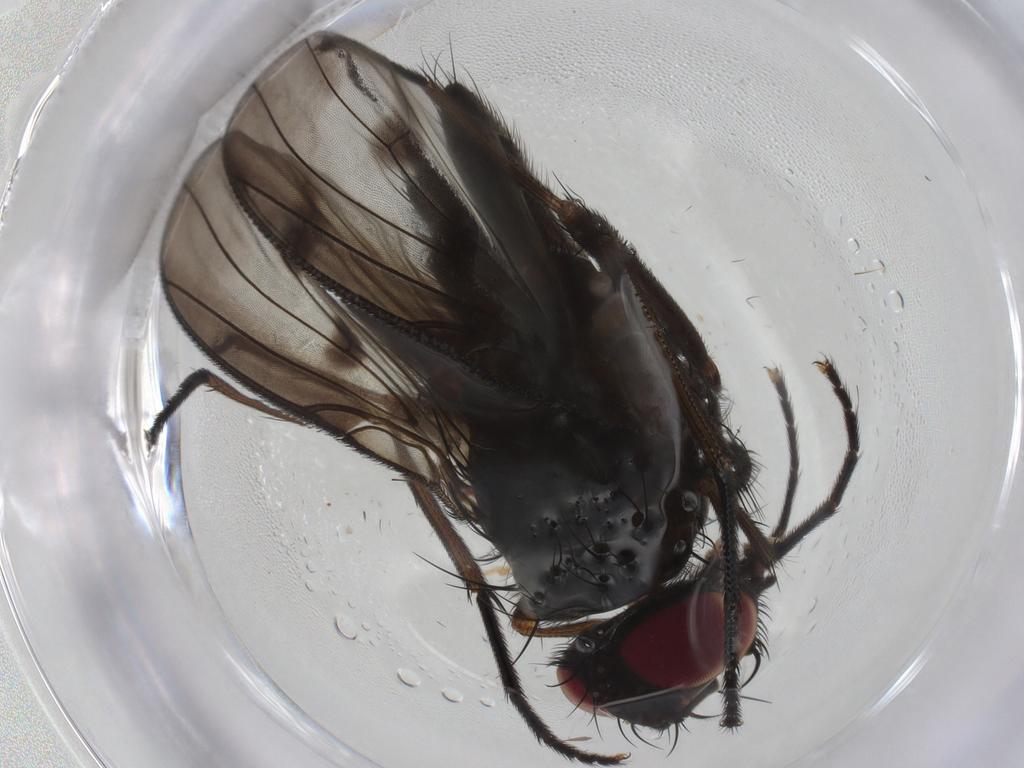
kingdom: Animalia
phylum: Arthropoda
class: Insecta
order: Diptera
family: Muscidae
